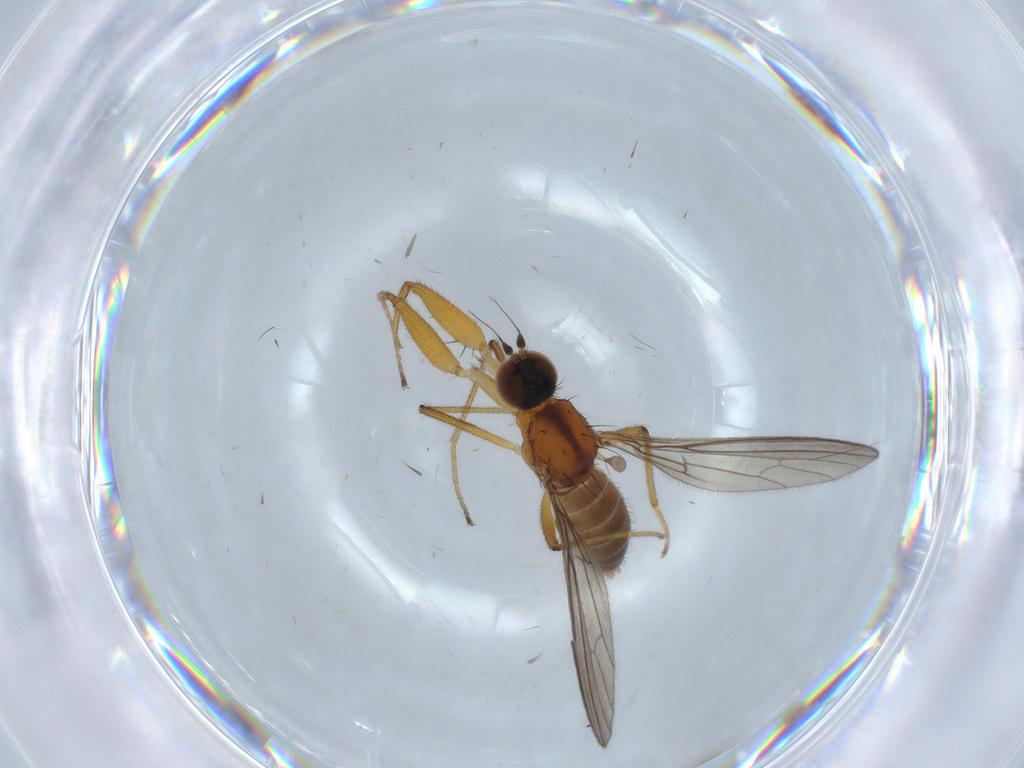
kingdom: Animalia
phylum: Arthropoda
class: Insecta
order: Diptera
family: Empididae
